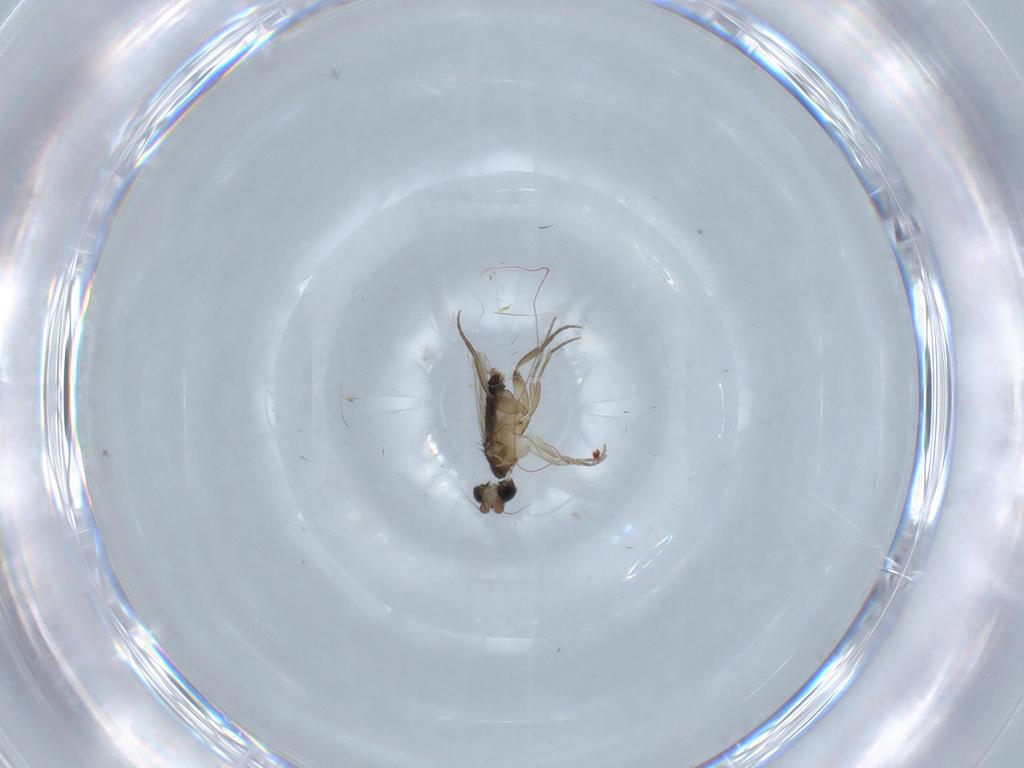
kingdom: Animalia
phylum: Arthropoda
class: Insecta
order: Diptera
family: Cecidomyiidae
